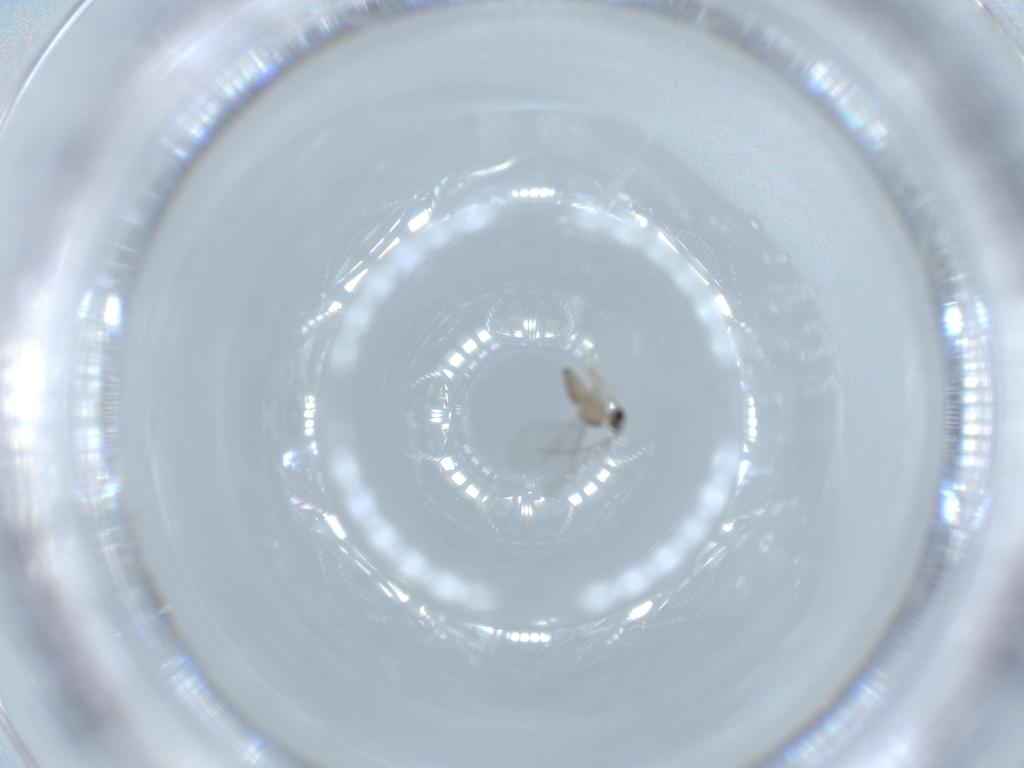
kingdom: Animalia
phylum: Arthropoda
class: Insecta
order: Diptera
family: Cecidomyiidae
